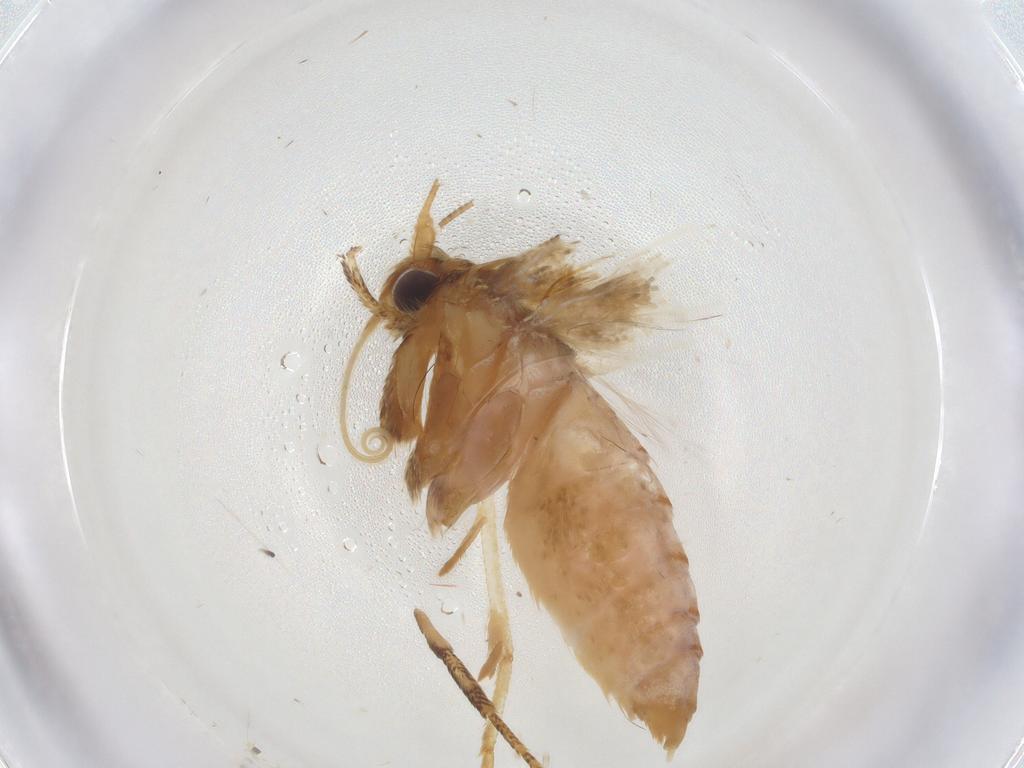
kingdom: Animalia
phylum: Arthropoda
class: Insecta
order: Lepidoptera
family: Blastobasidae
